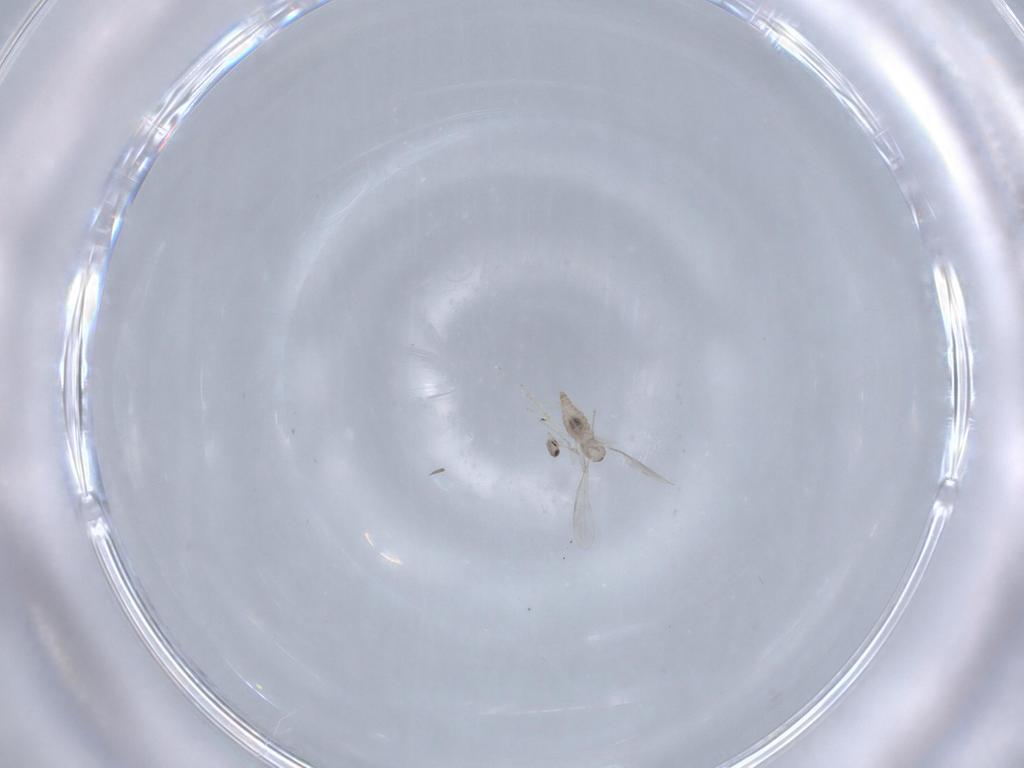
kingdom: Animalia
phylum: Arthropoda
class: Insecta
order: Diptera
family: Cecidomyiidae
